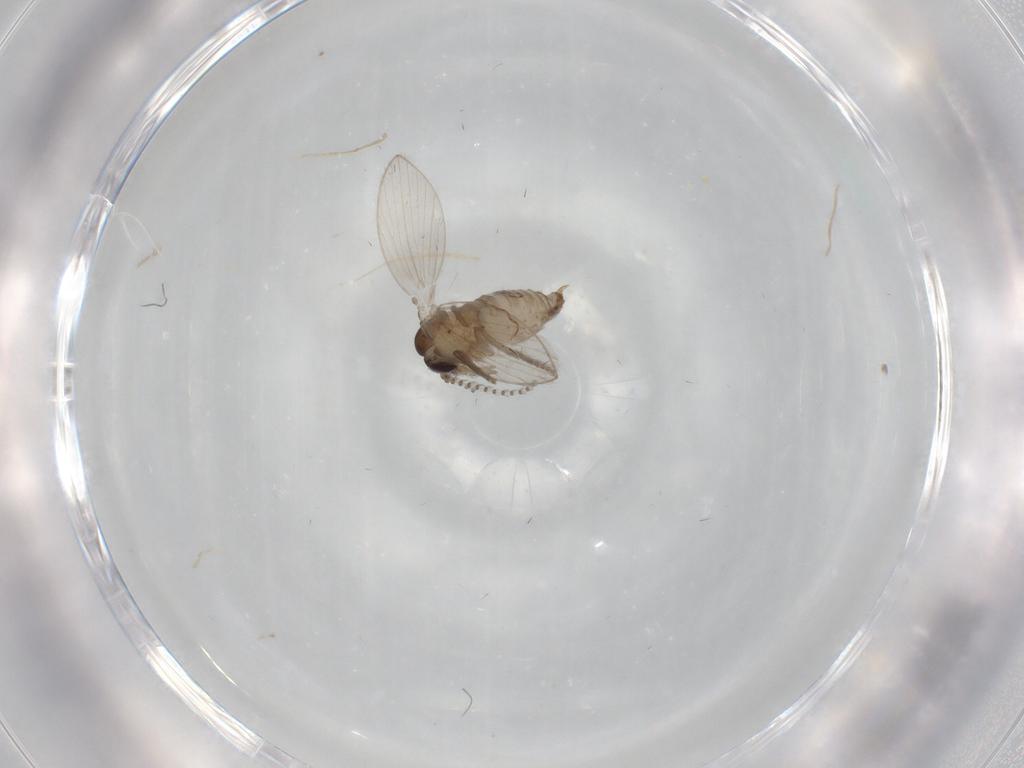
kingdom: Animalia
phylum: Arthropoda
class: Insecta
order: Diptera
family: Psychodidae
